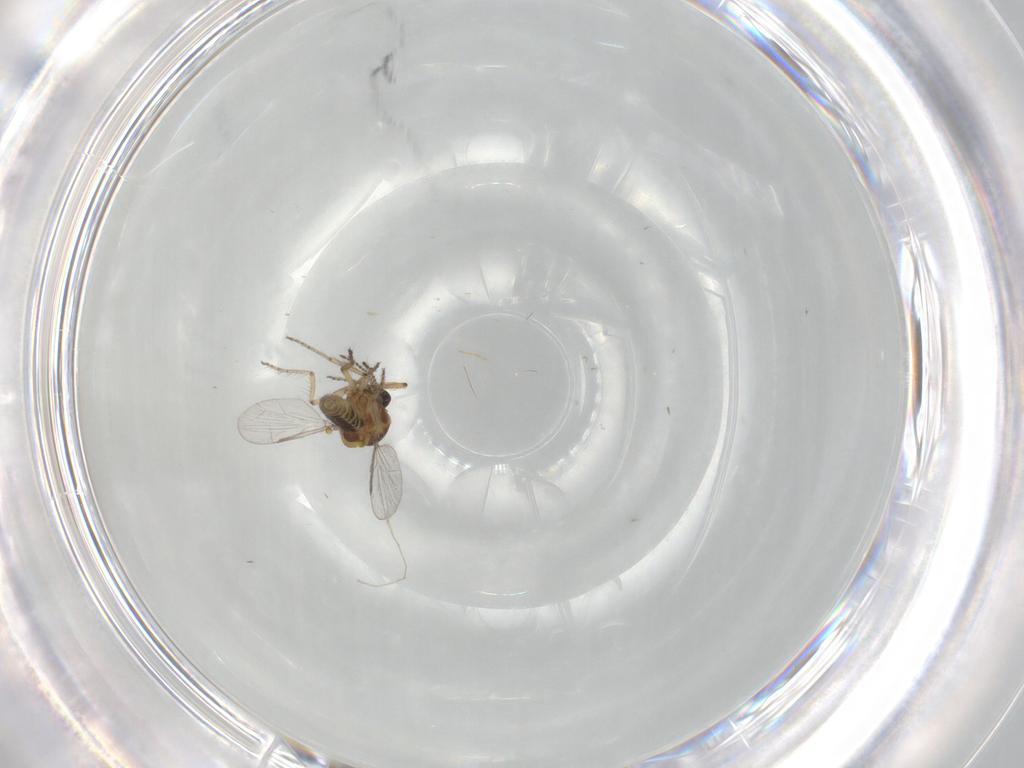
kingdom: Animalia
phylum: Arthropoda
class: Insecta
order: Diptera
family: Ceratopogonidae
